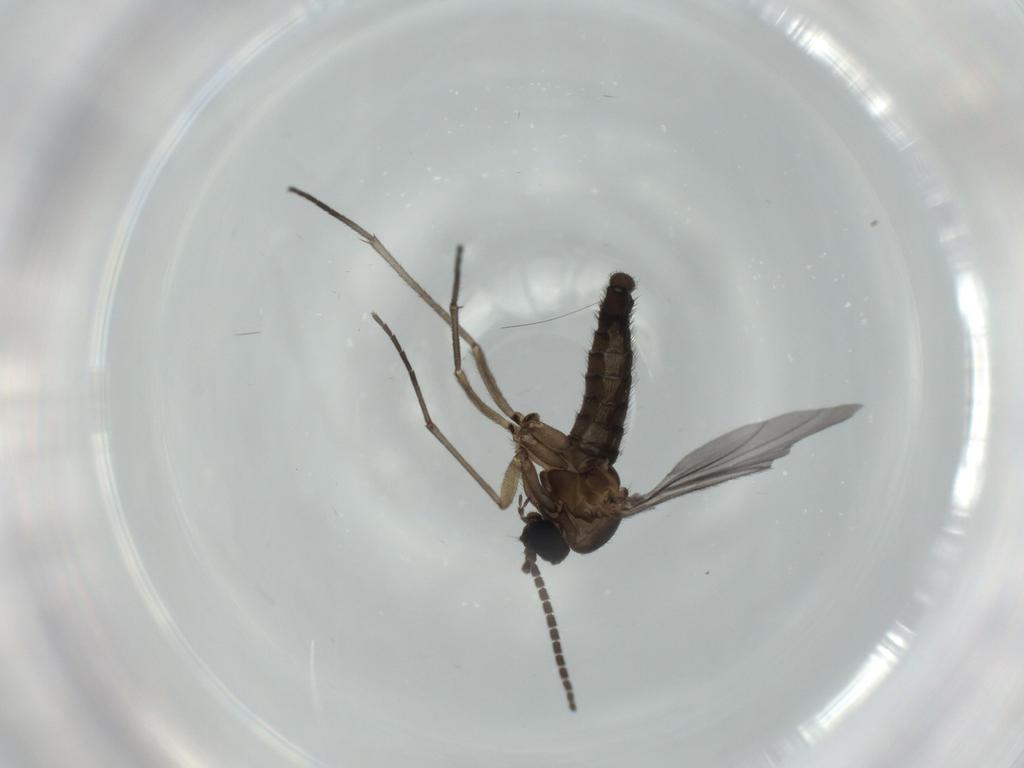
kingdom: Animalia
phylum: Arthropoda
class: Insecta
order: Diptera
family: Sciaridae
